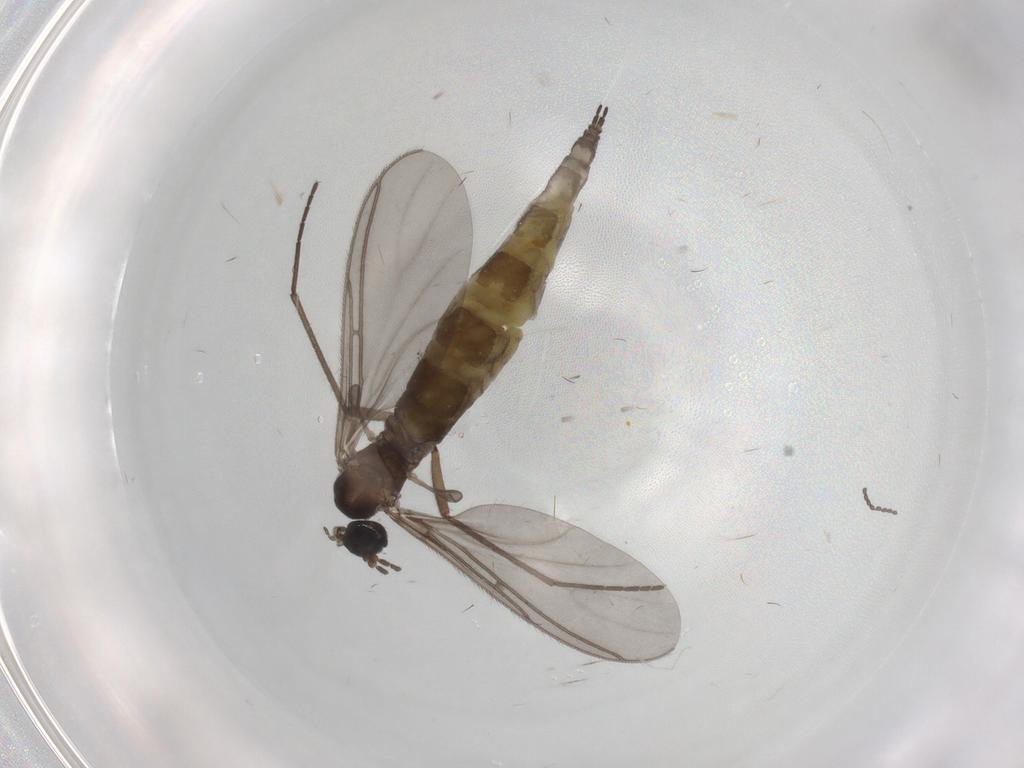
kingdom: Animalia
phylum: Arthropoda
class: Insecta
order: Diptera
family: Sciaridae
